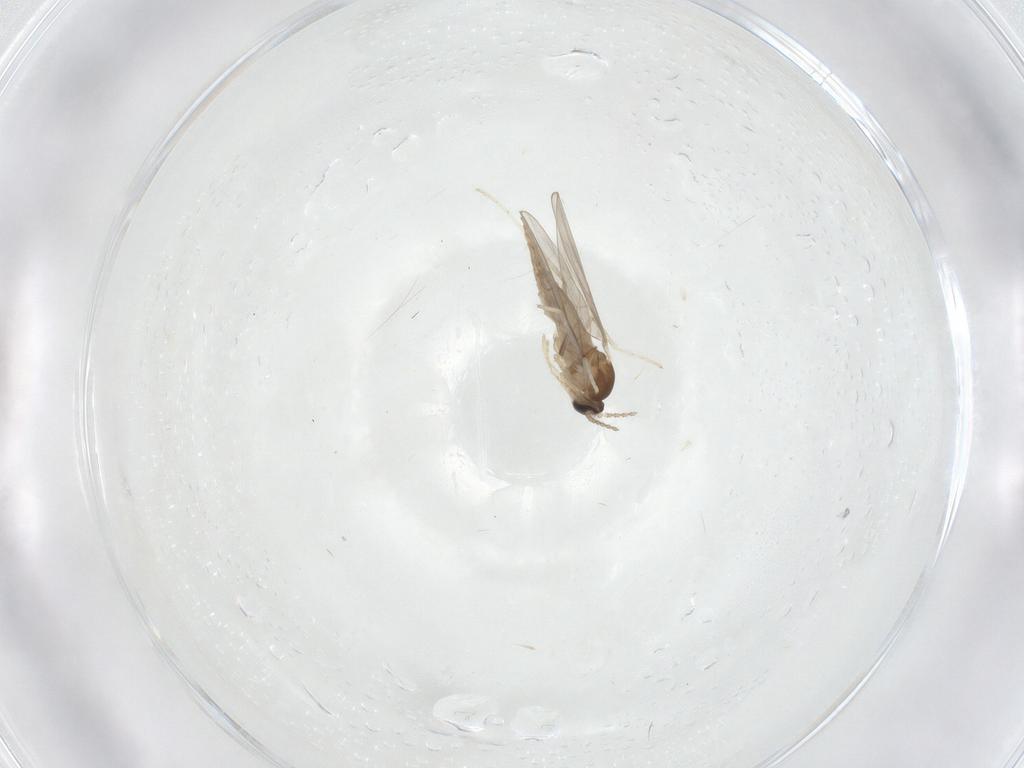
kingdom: Animalia
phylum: Arthropoda
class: Insecta
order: Diptera
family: Cecidomyiidae
